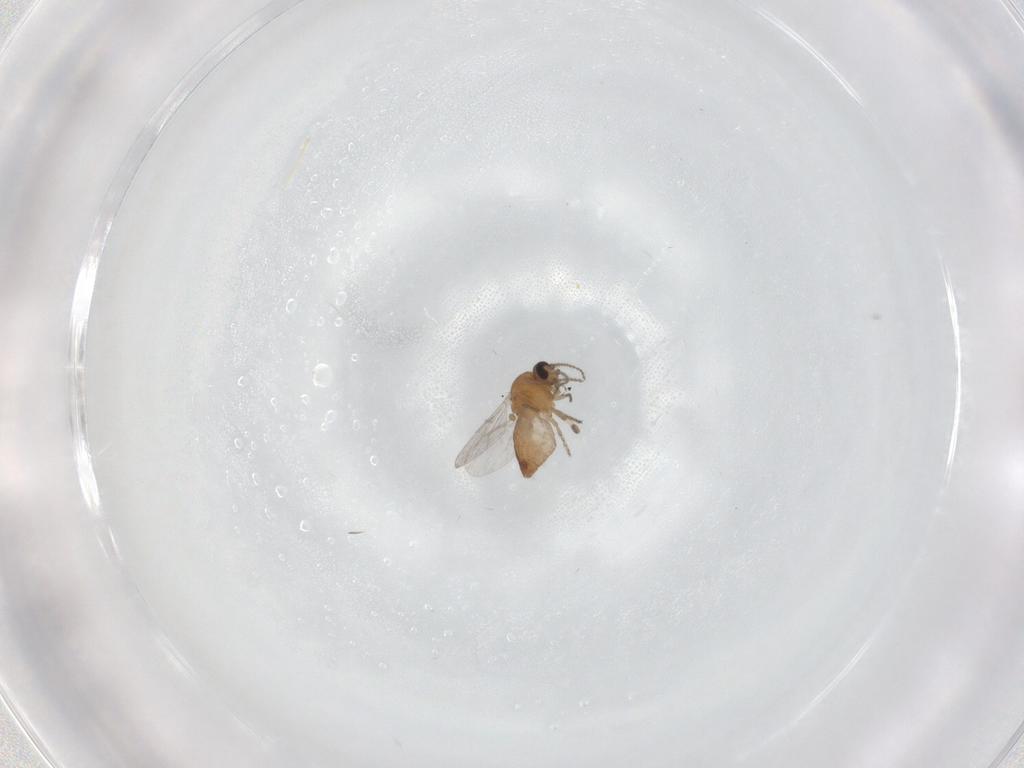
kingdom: Animalia
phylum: Arthropoda
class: Insecta
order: Diptera
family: Ceratopogonidae
